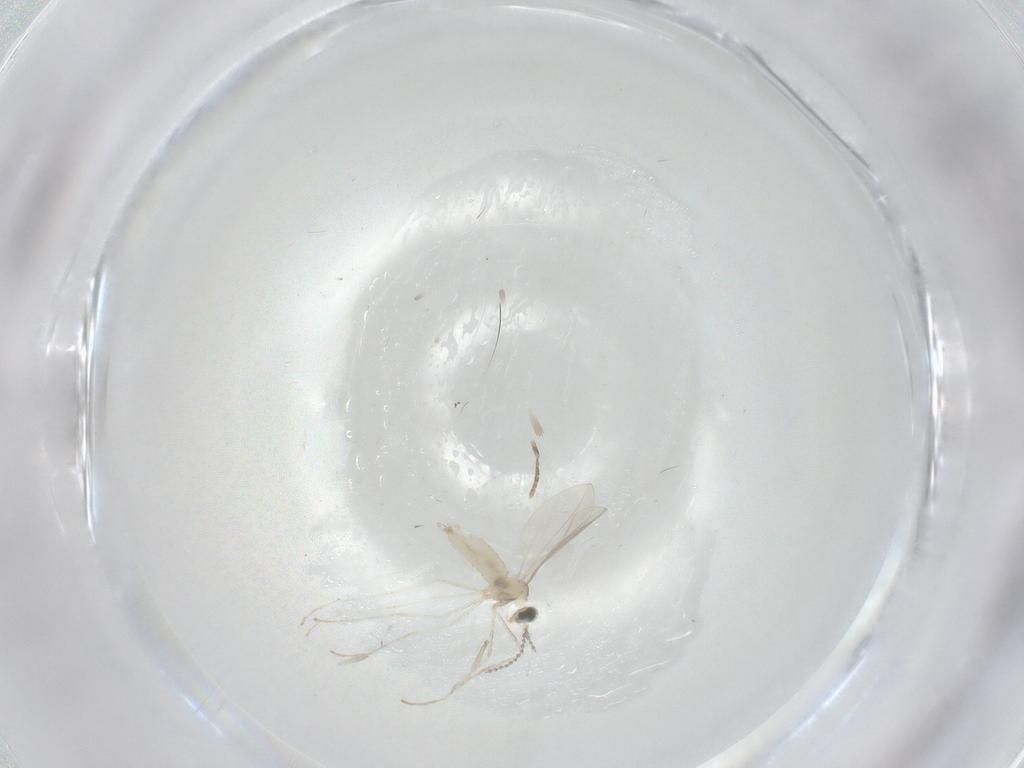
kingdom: Animalia
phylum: Arthropoda
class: Insecta
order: Diptera
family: Cecidomyiidae
